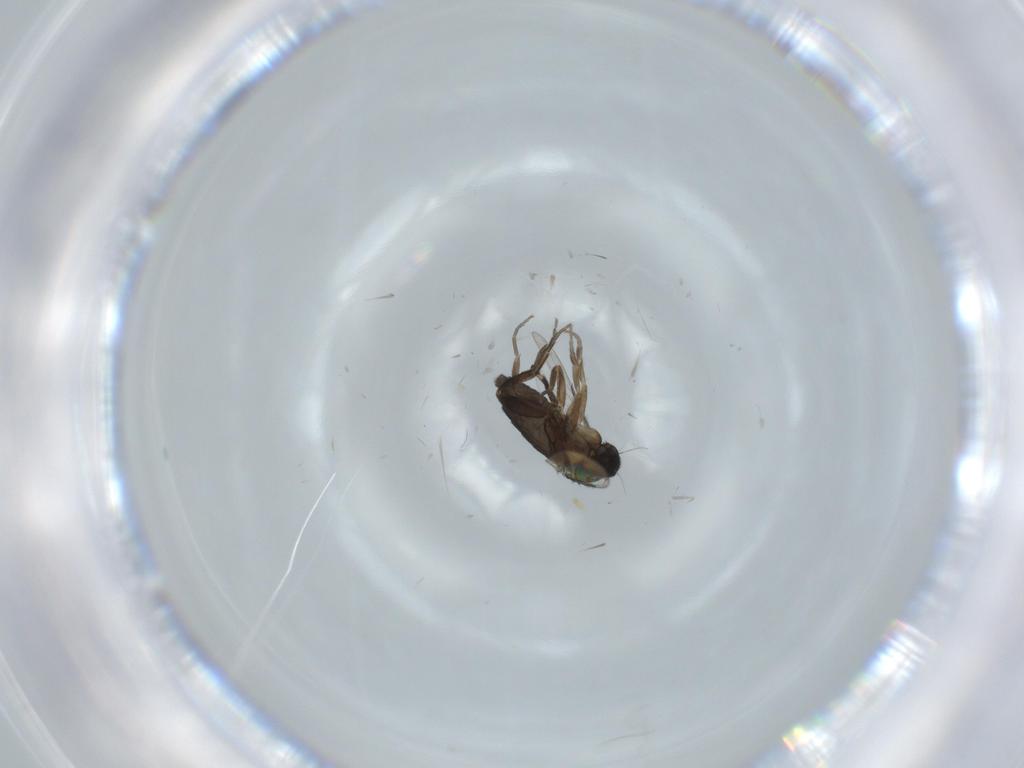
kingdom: Animalia
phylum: Arthropoda
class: Insecta
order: Diptera
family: Phoridae
